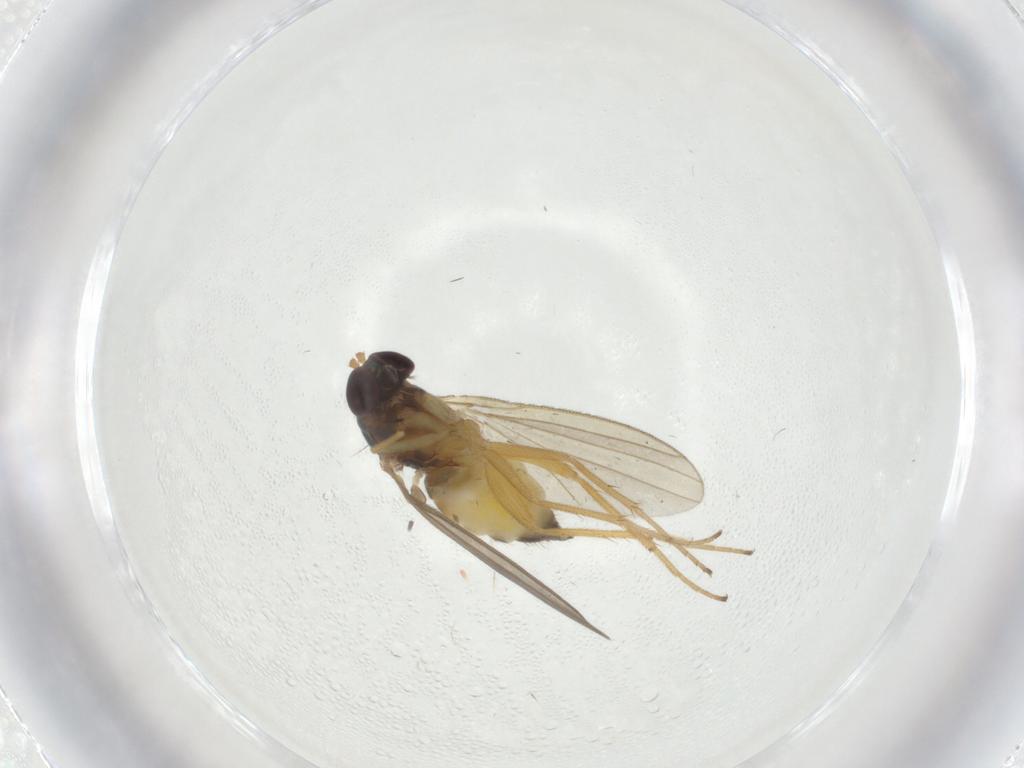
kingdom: Animalia
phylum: Arthropoda
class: Insecta
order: Diptera
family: Dolichopodidae
